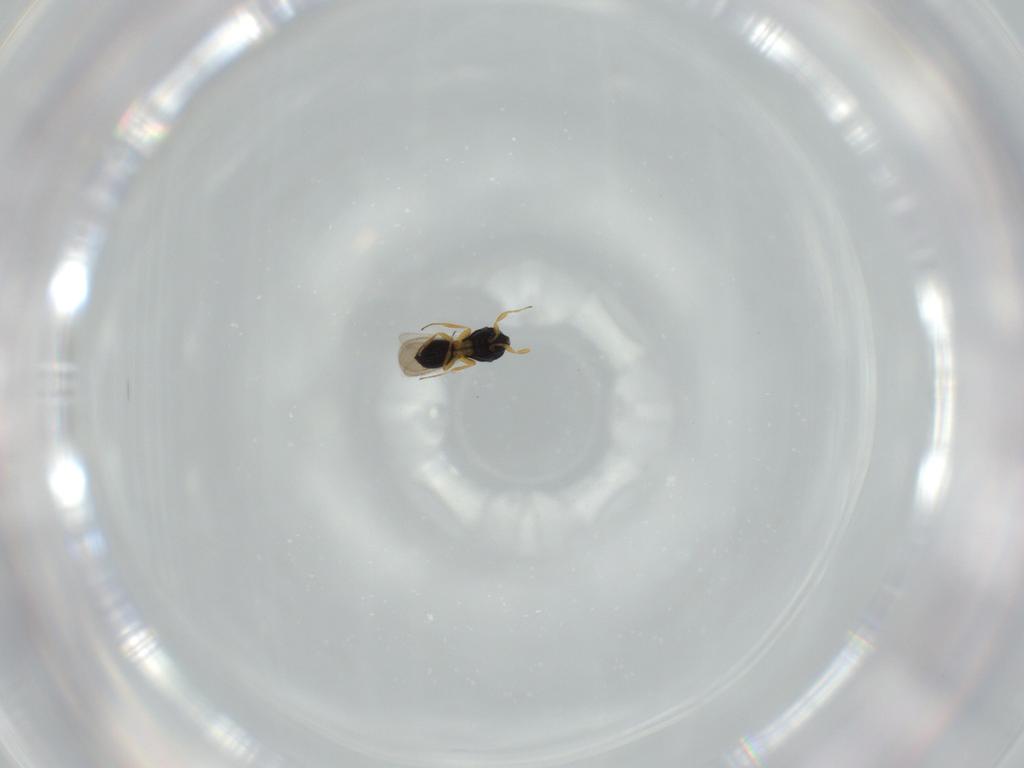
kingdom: Animalia
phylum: Arthropoda
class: Insecta
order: Hymenoptera
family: Scelionidae
